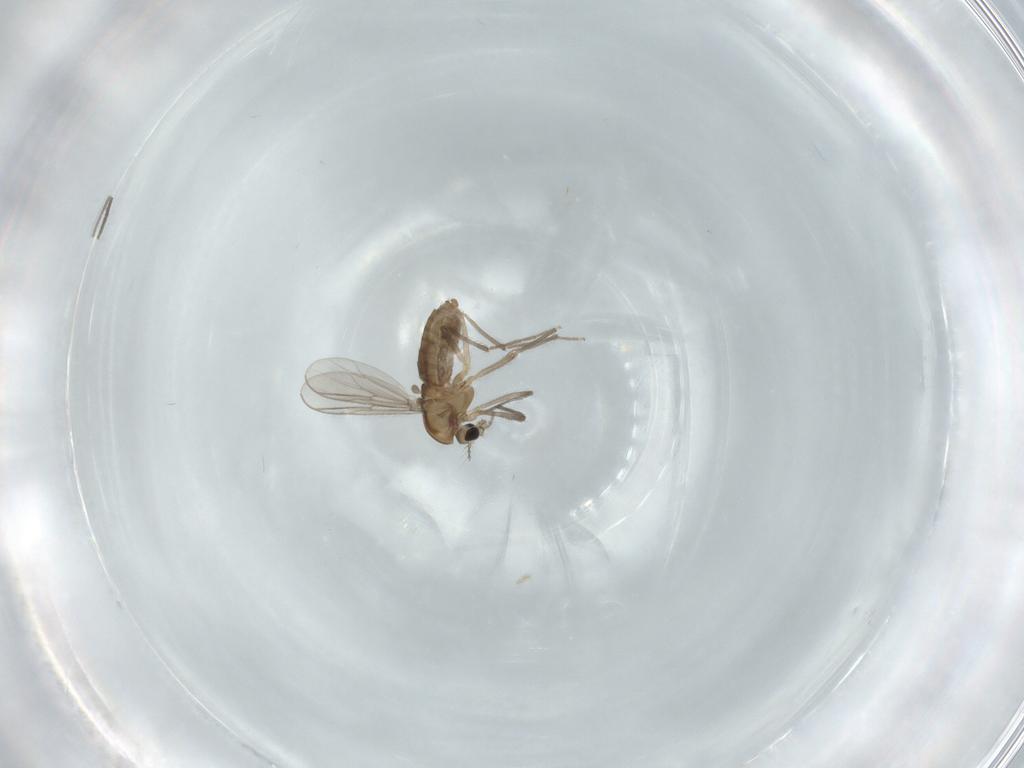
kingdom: Animalia
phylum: Arthropoda
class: Insecta
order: Diptera
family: Chironomidae
